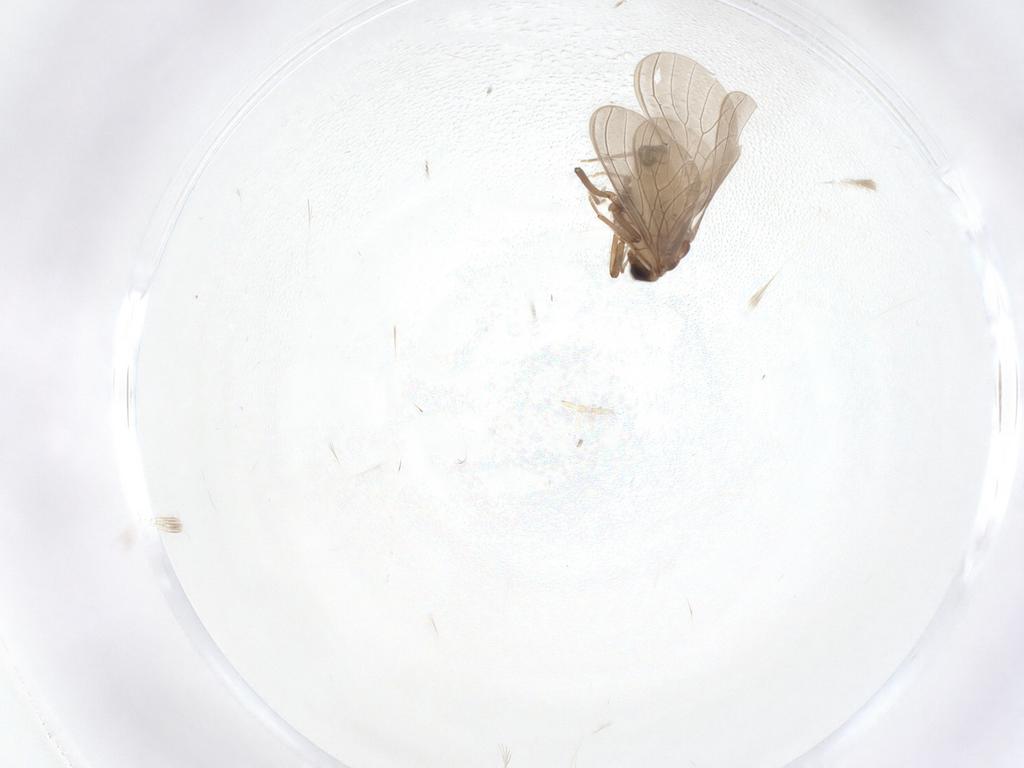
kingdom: Animalia
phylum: Arthropoda
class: Insecta
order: Neuroptera
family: Coniopterygidae
